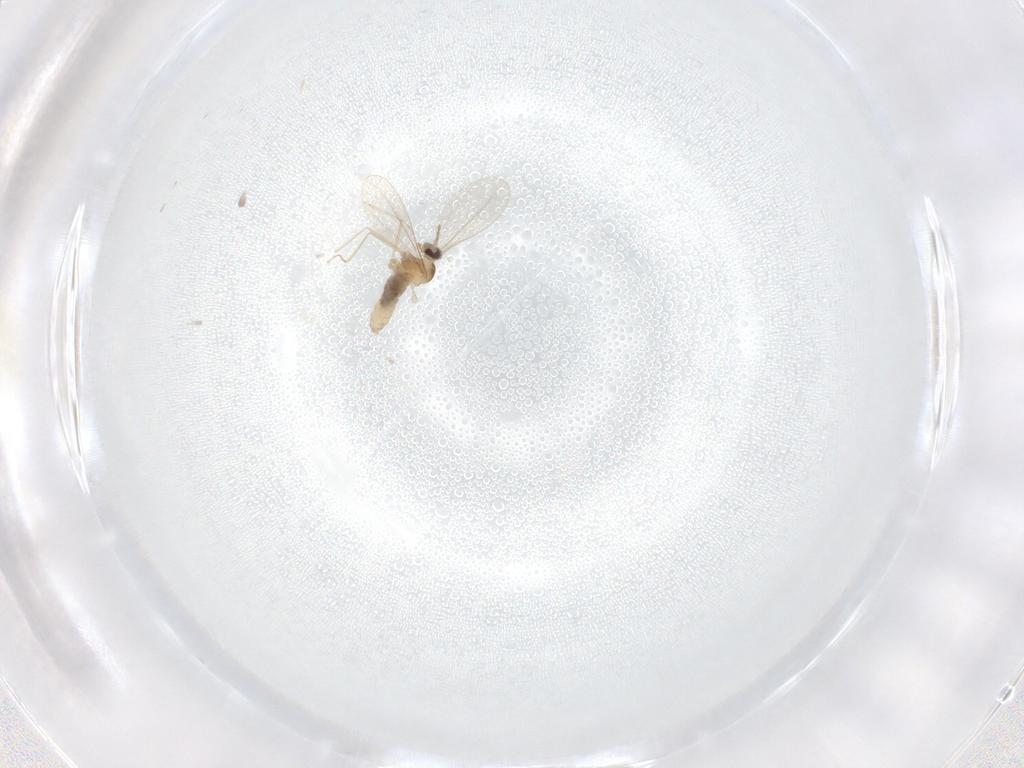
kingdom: Animalia
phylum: Arthropoda
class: Insecta
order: Diptera
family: Cecidomyiidae
